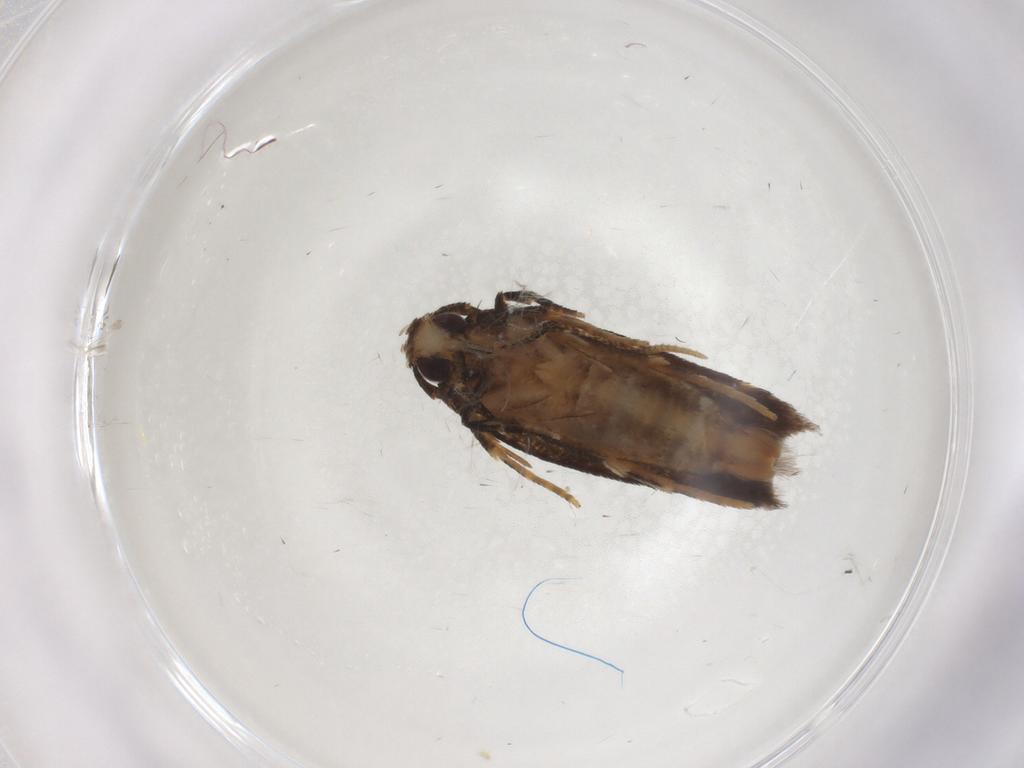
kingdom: Animalia
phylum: Arthropoda
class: Insecta
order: Lepidoptera
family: Cosmopterigidae
